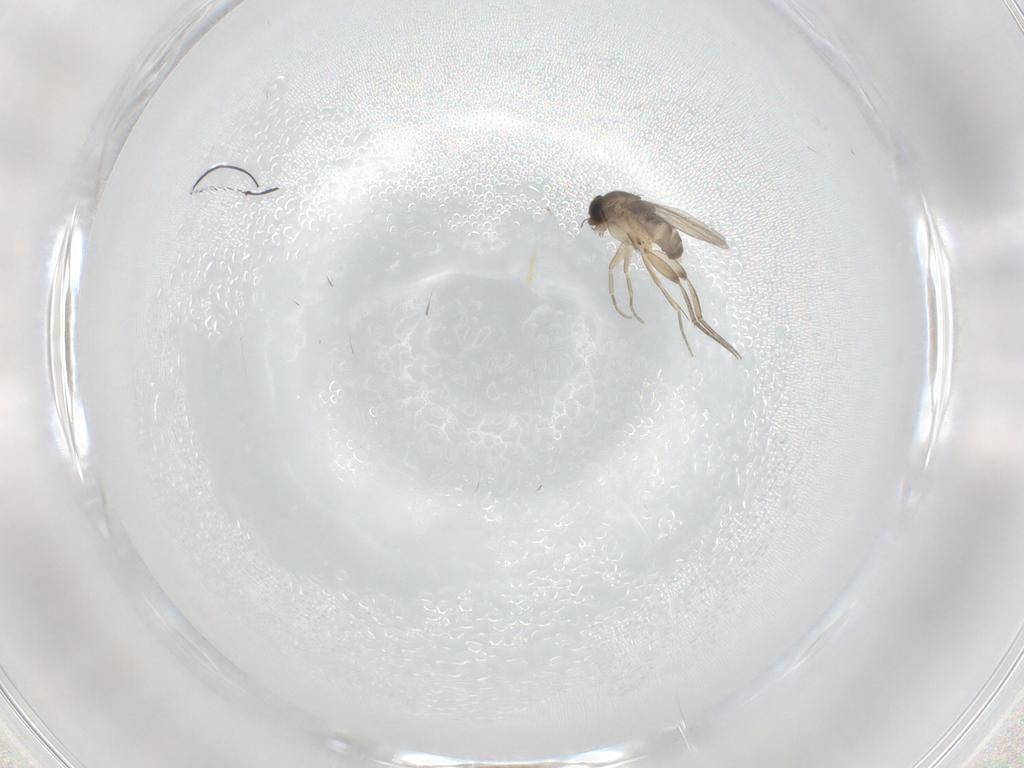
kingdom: Animalia
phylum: Arthropoda
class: Insecta
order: Diptera
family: Phoridae
